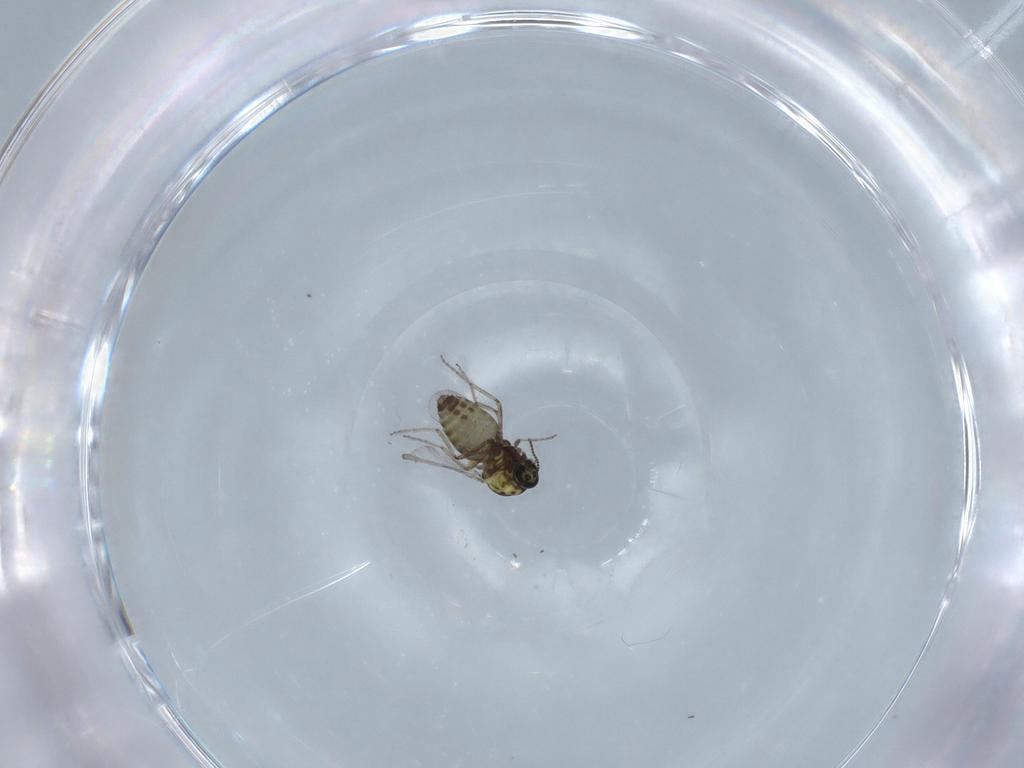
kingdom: Animalia
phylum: Arthropoda
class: Insecta
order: Diptera
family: Ceratopogonidae
